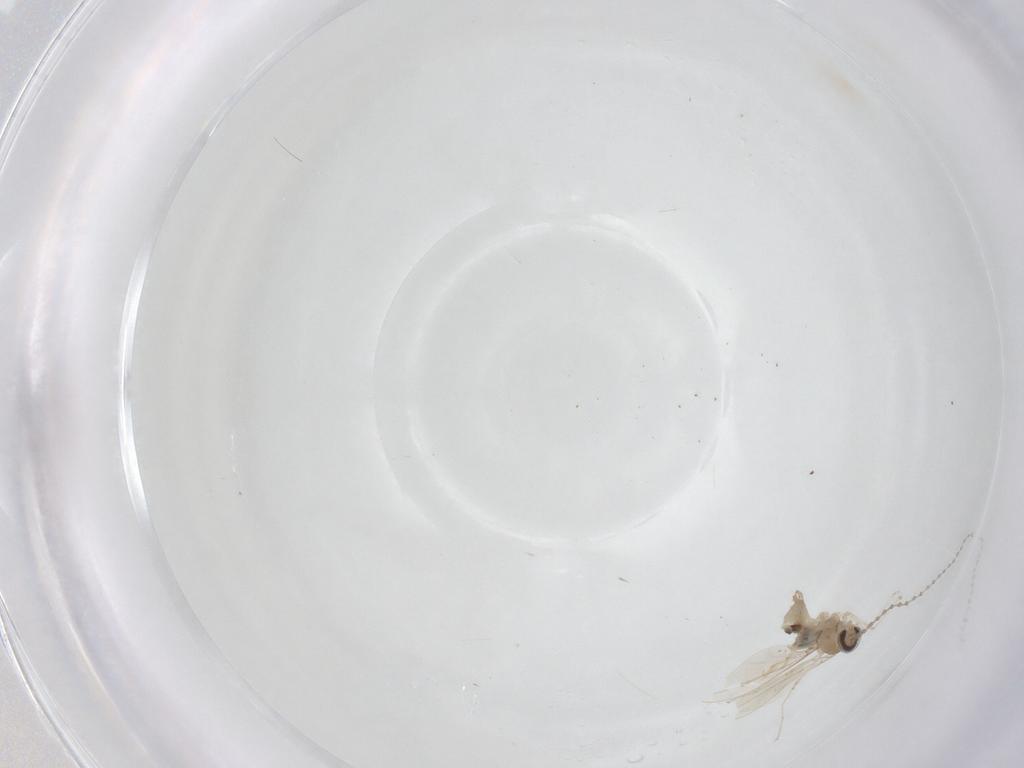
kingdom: Animalia
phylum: Arthropoda
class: Insecta
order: Diptera
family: Cecidomyiidae
